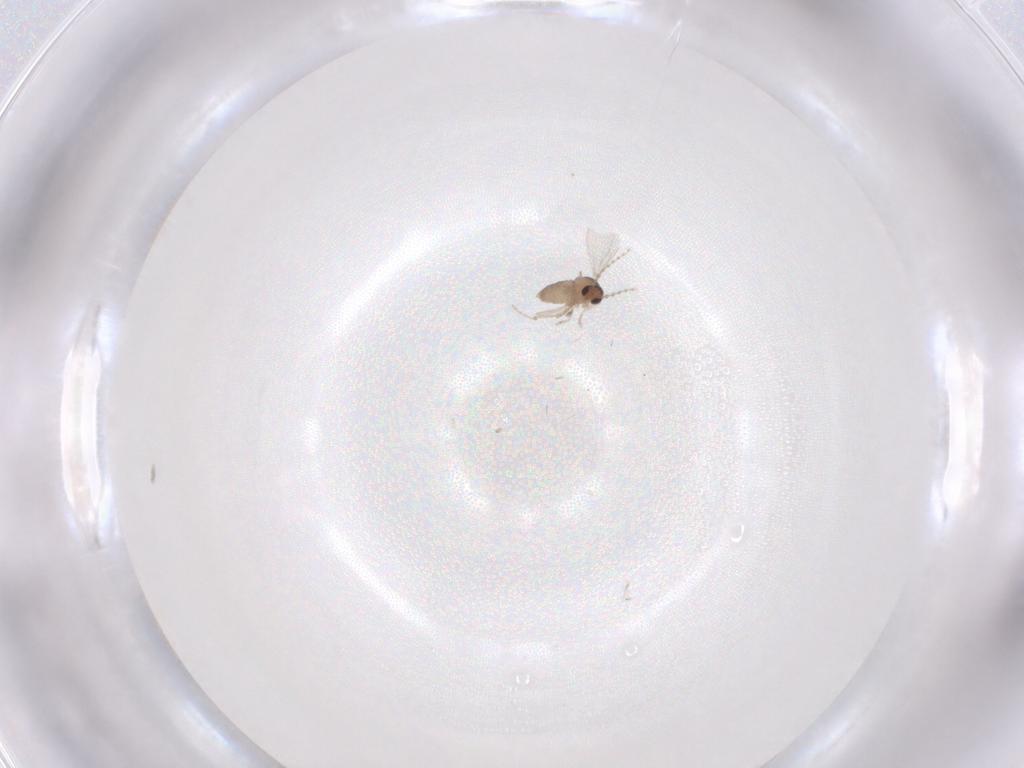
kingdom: Animalia
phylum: Arthropoda
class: Insecta
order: Diptera
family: Cecidomyiidae
